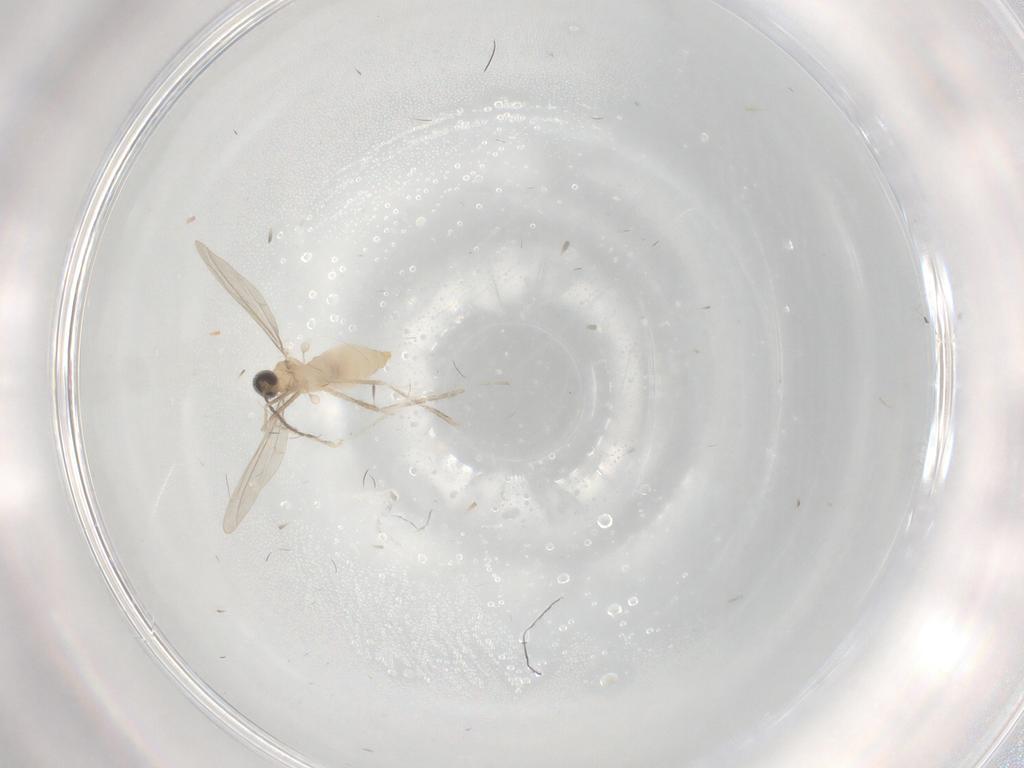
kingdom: Animalia
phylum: Arthropoda
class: Insecta
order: Diptera
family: Cecidomyiidae
